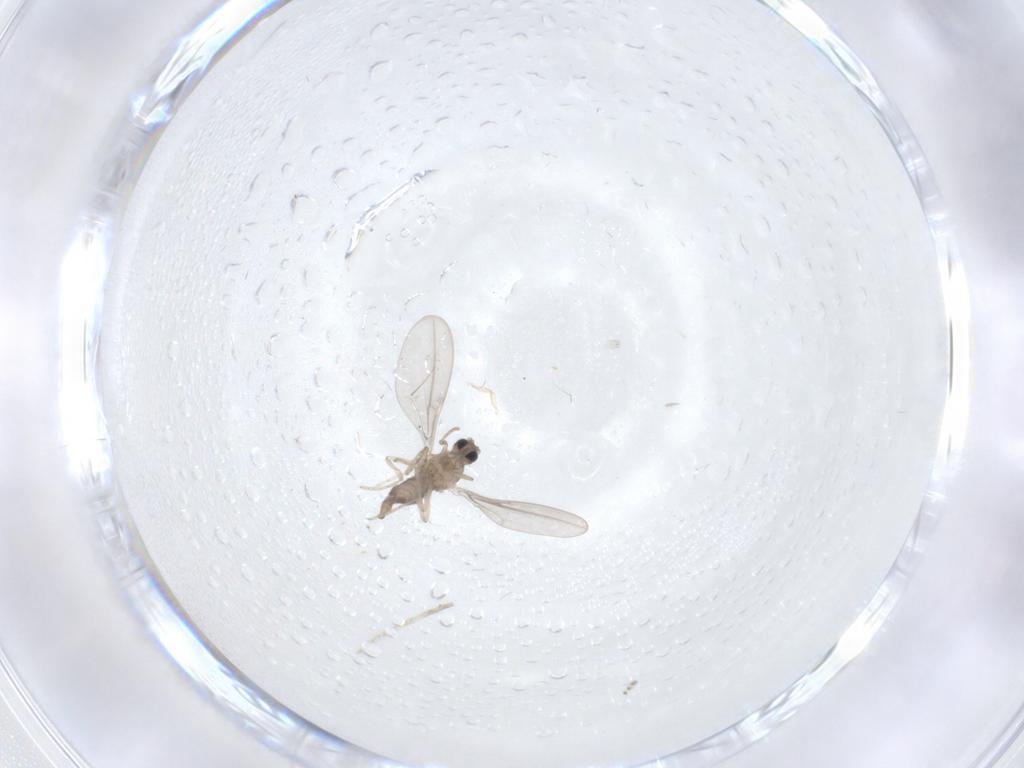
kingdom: Animalia
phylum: Arthropoda
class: Insecta
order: Diptera
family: Cecidomyiidae
